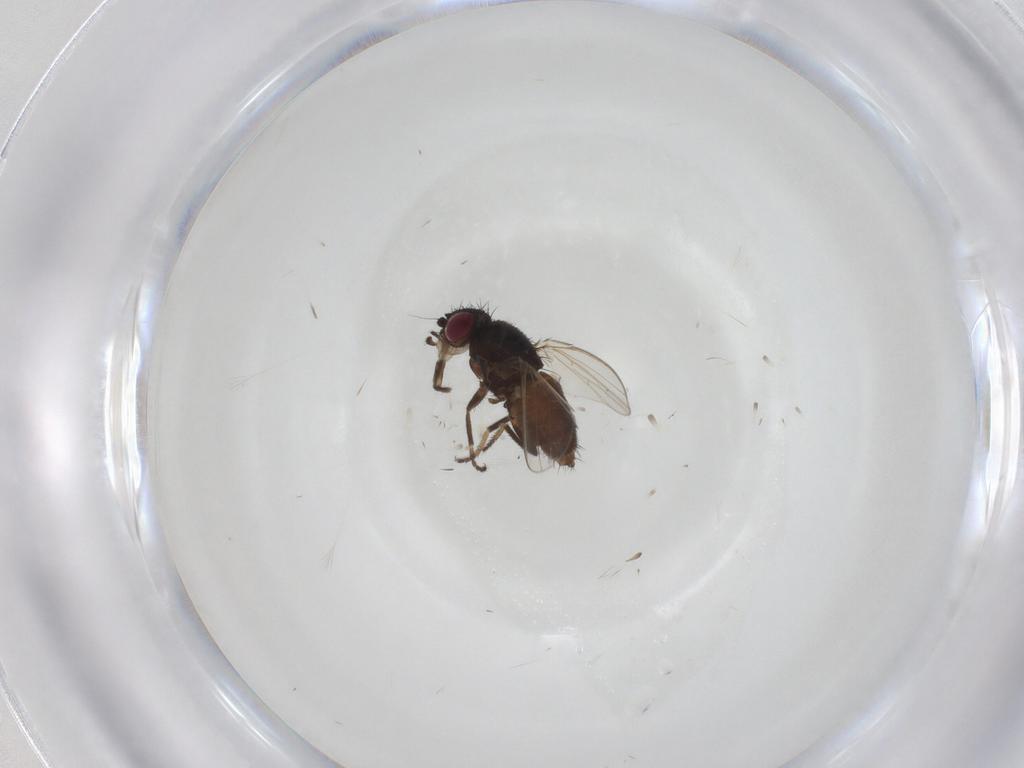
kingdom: Animalia
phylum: Arthropoda
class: Insecta
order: Diptera
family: Milichiidae
